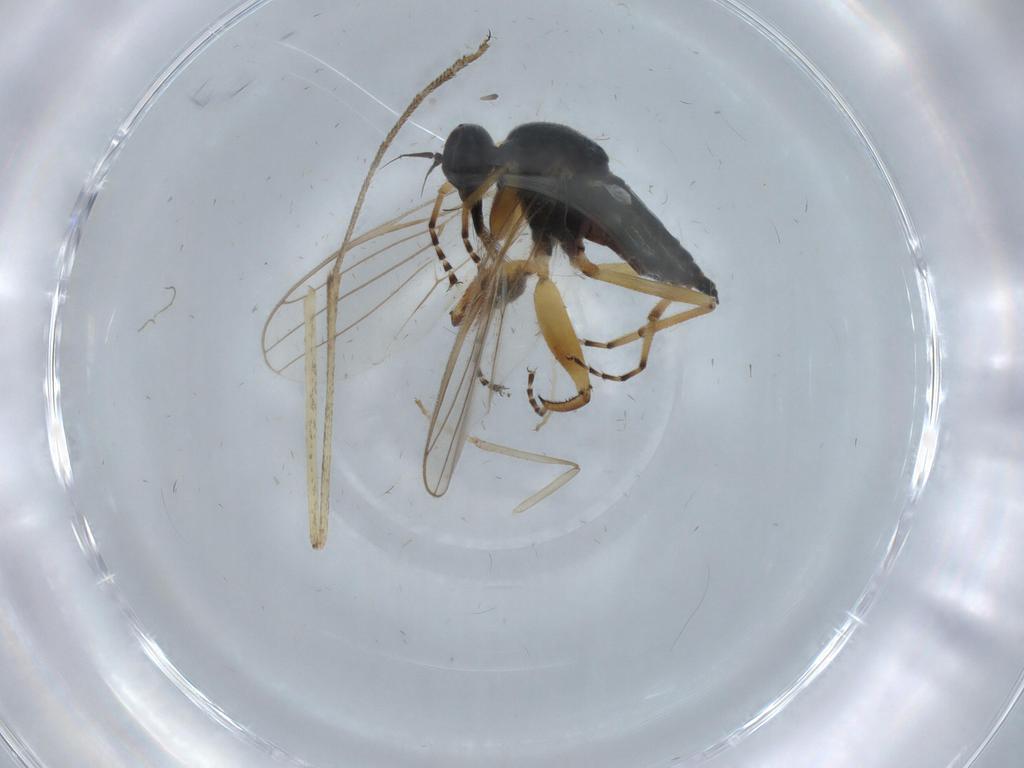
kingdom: Animalia
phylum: Arthropoda
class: Insecta
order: Diptera
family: Hybotidae
